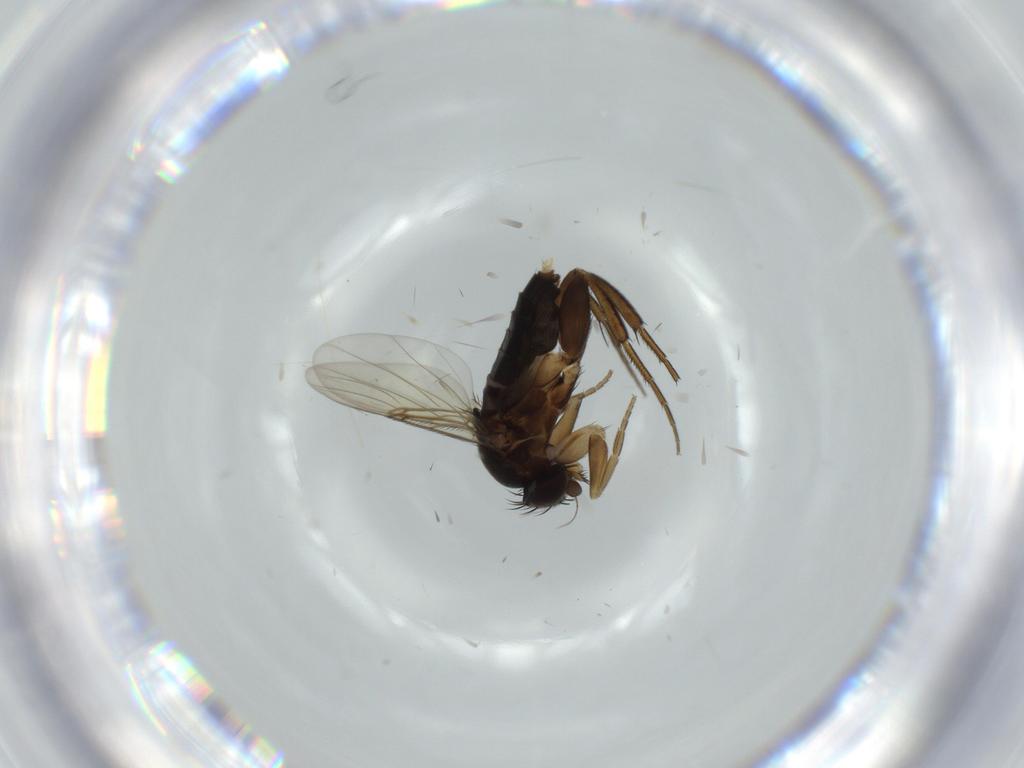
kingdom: Animalia
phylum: Arthropoda
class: Insecta
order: Diptera
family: Phoridae
